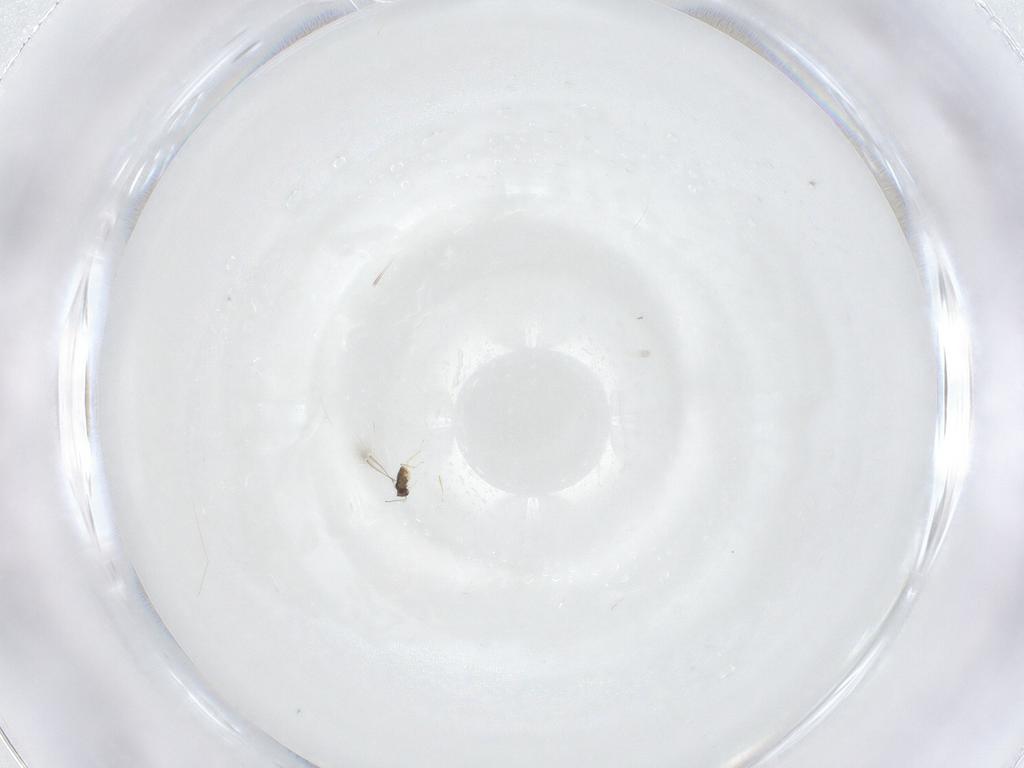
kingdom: Animalia
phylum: Arthropoda
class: Insecta
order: Hymenoptera
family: Mymaridae
